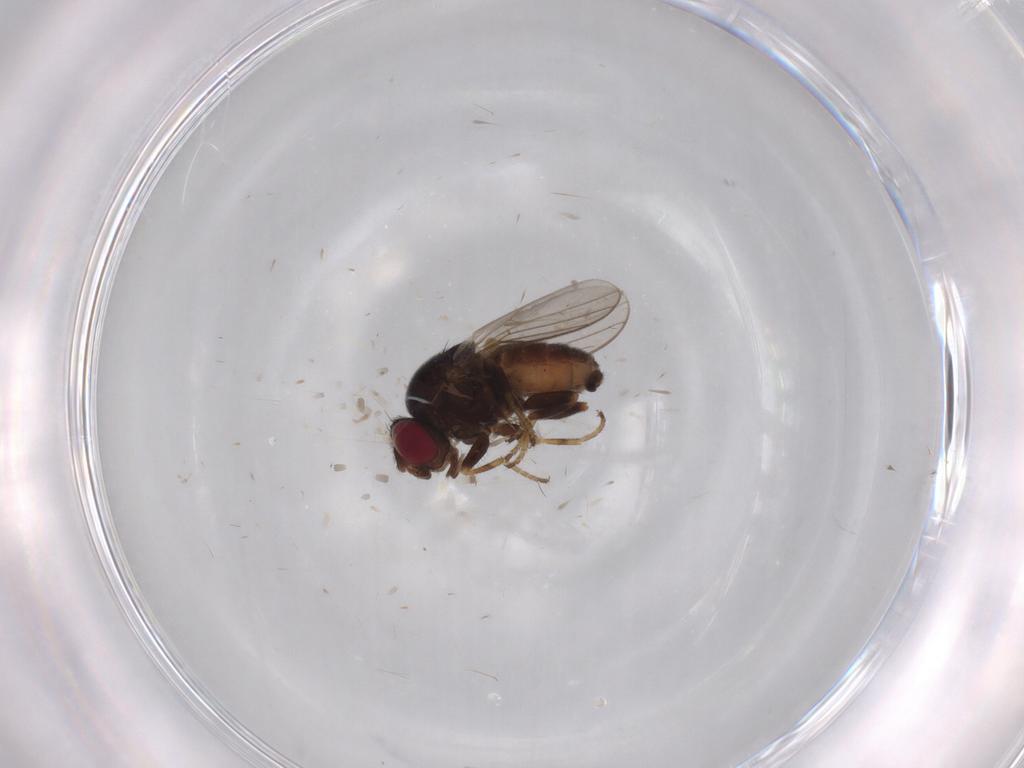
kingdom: Animalia
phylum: Arthropoda
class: Insecta
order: Diptera
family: Chloropidae
